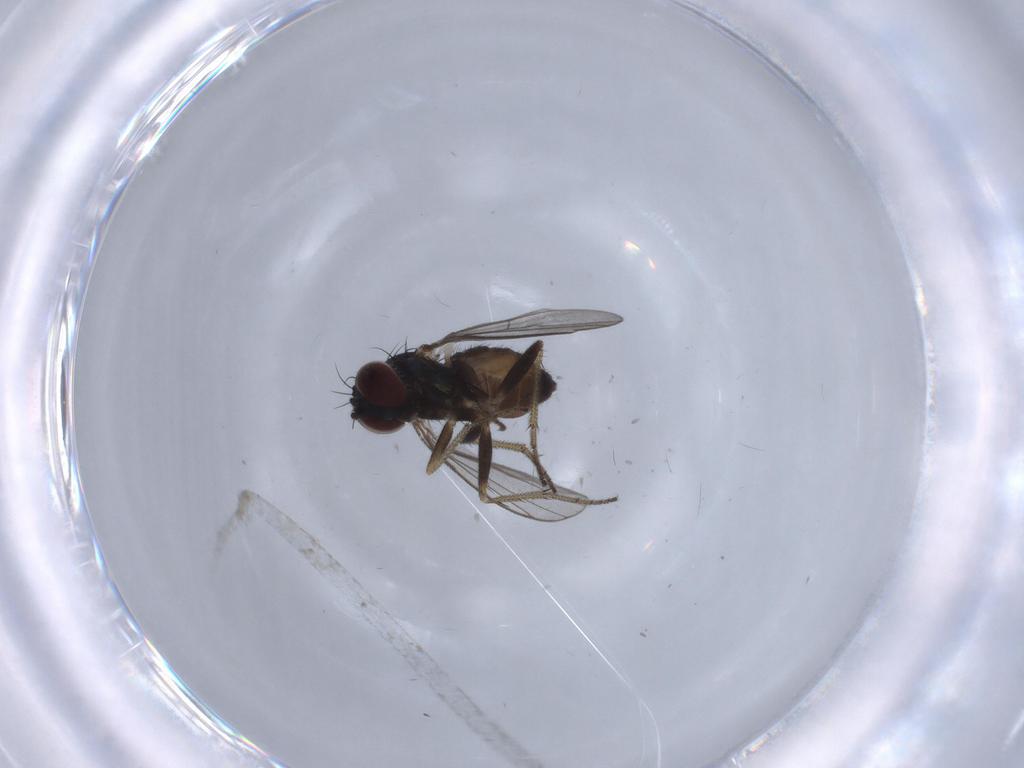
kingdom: Animalia
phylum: Arthropoda
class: Insecta
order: Diptera
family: Dolichopodidae
